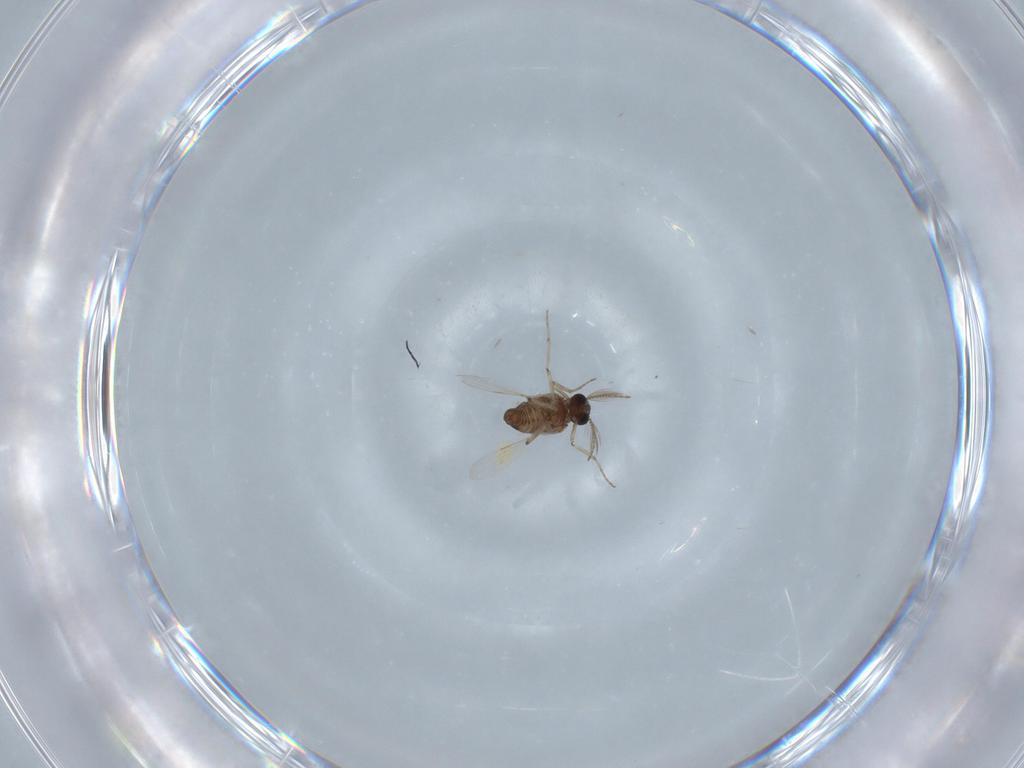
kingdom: Animalia
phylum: Arthropoda
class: Insecta
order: Diptera
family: Ceratopogonidae
